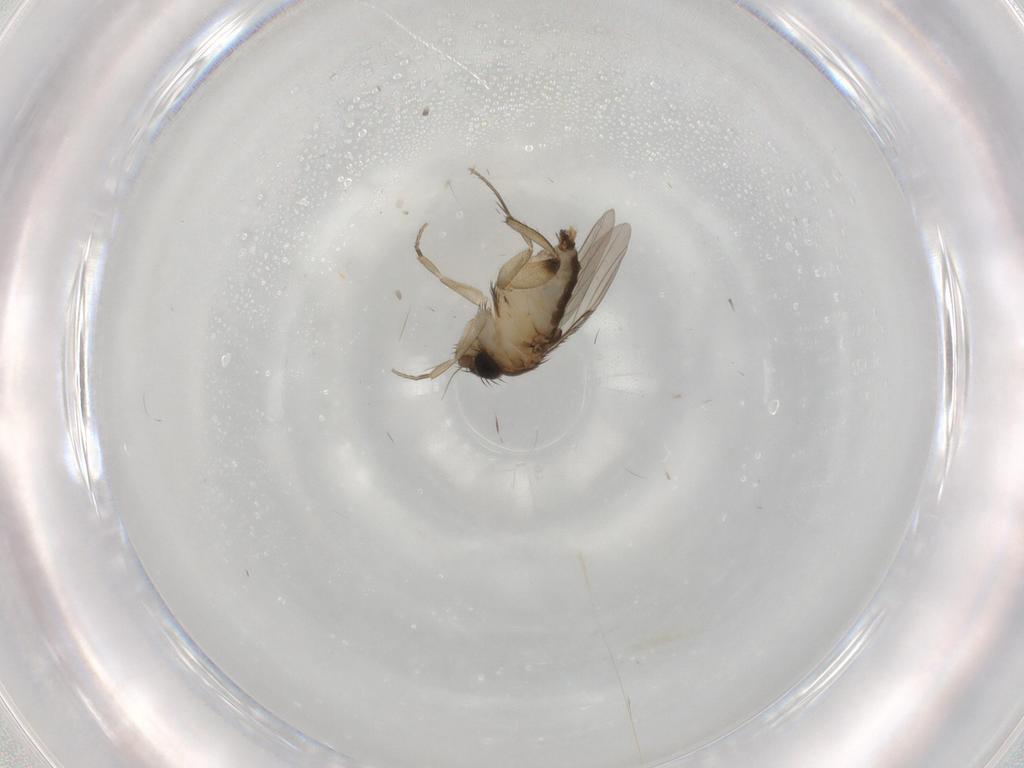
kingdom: Animalia
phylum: Arthropoda
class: Insecta
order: Diptera
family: Phoridae
